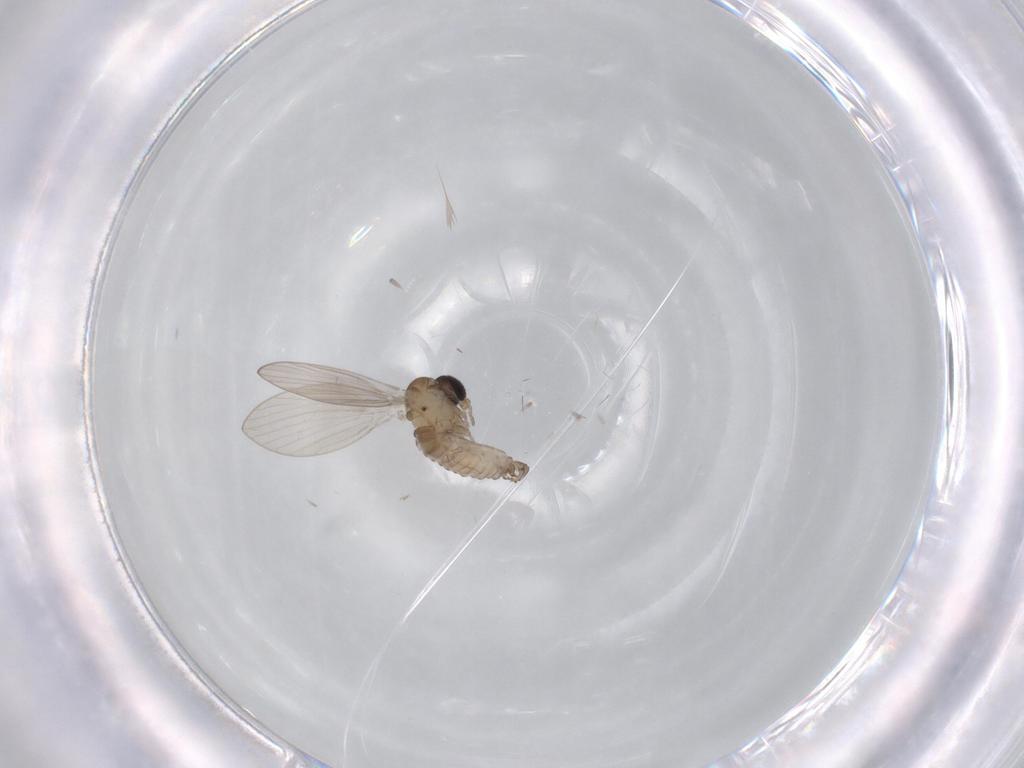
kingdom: Animalia
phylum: Arthropoda
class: Insecta
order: Diptera
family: Psychodidae
